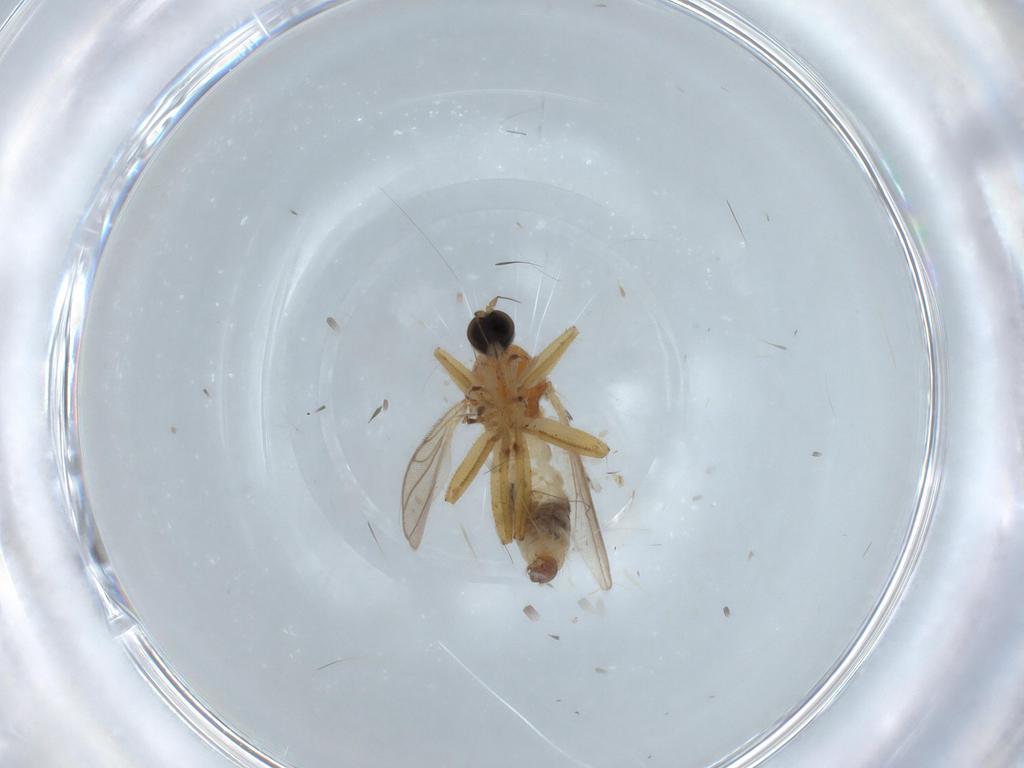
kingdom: Animalia
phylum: Arthropoda
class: Insecta
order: Diptera
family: Hybotidae
